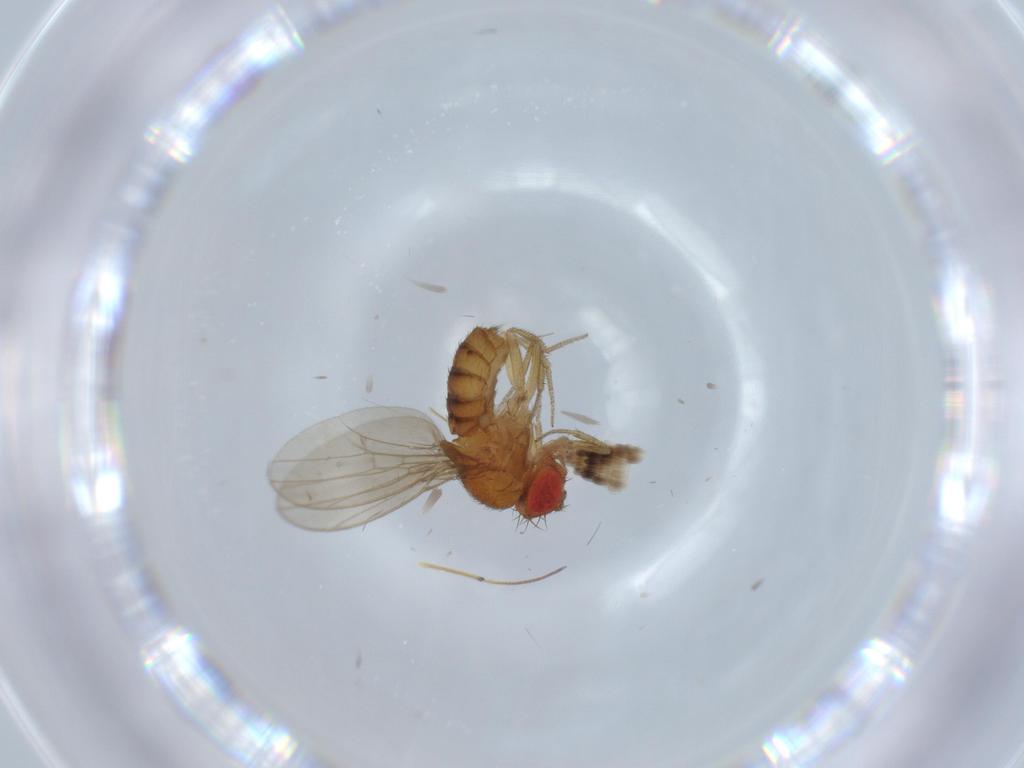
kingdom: Animalia
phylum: Arthropoda
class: Insecta
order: Diptera
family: Drosophilidae
